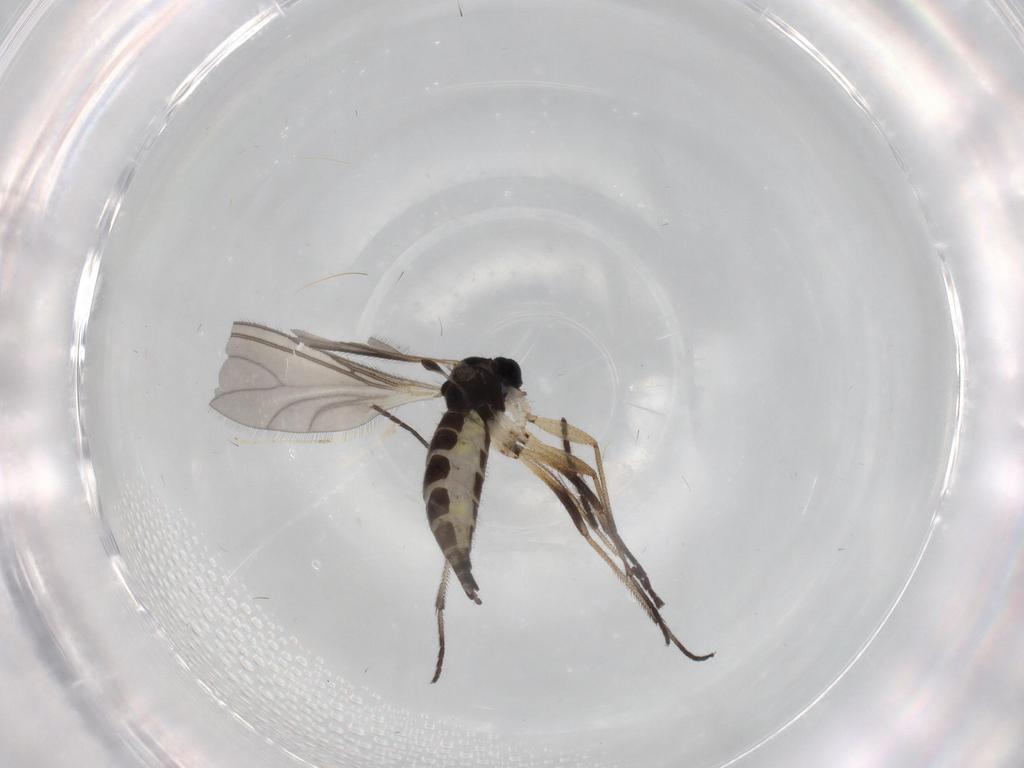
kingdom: Animalia
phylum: Arthropoda
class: Insecta
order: Diptera
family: Sciaridae
